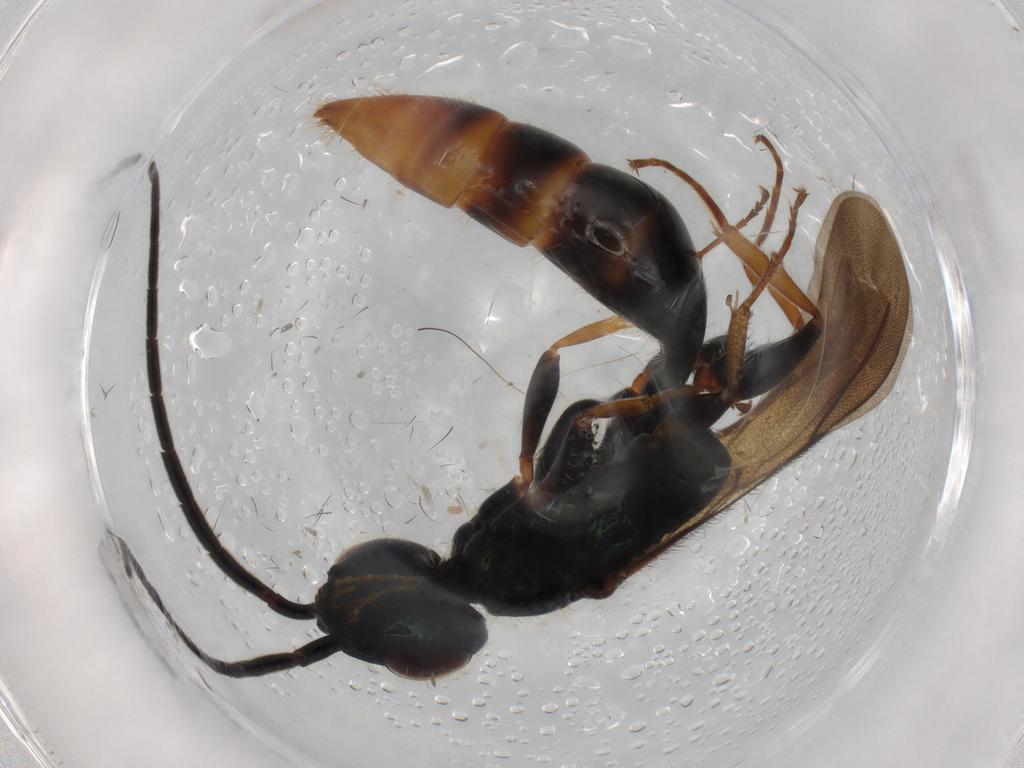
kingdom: Animalia
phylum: Arthropoda
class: Insecta
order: Hymenoptera
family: Bethylidae
